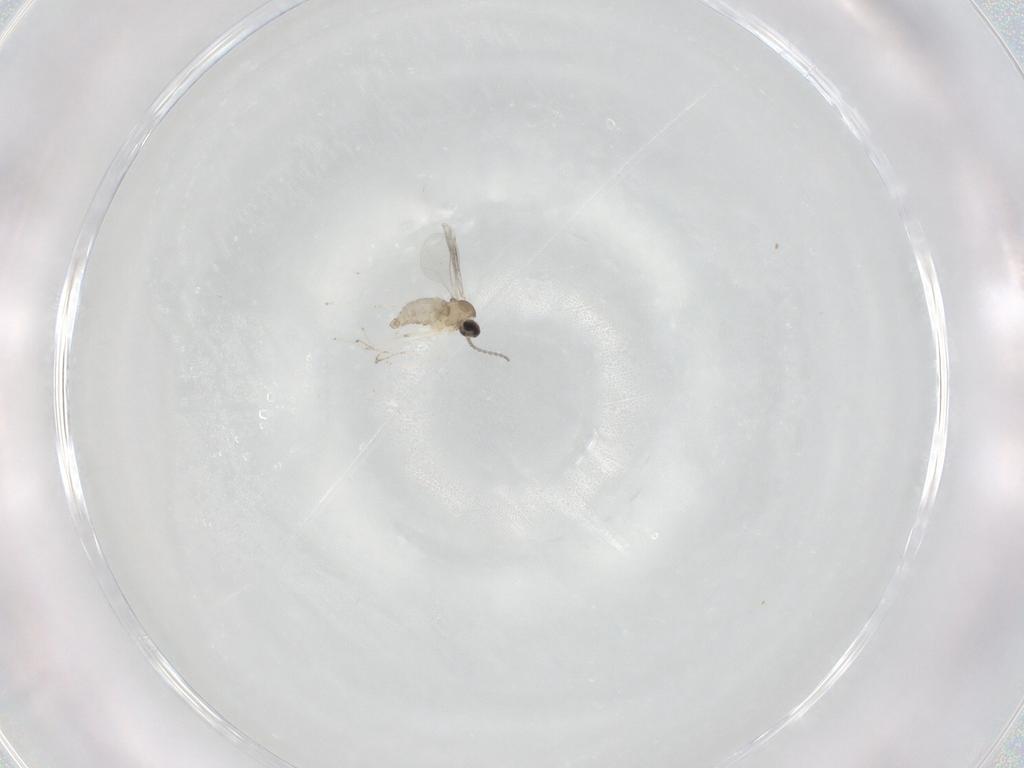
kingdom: Animalia
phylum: Arthropoda
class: Insecta
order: Diptera
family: Cecidomyiidae
